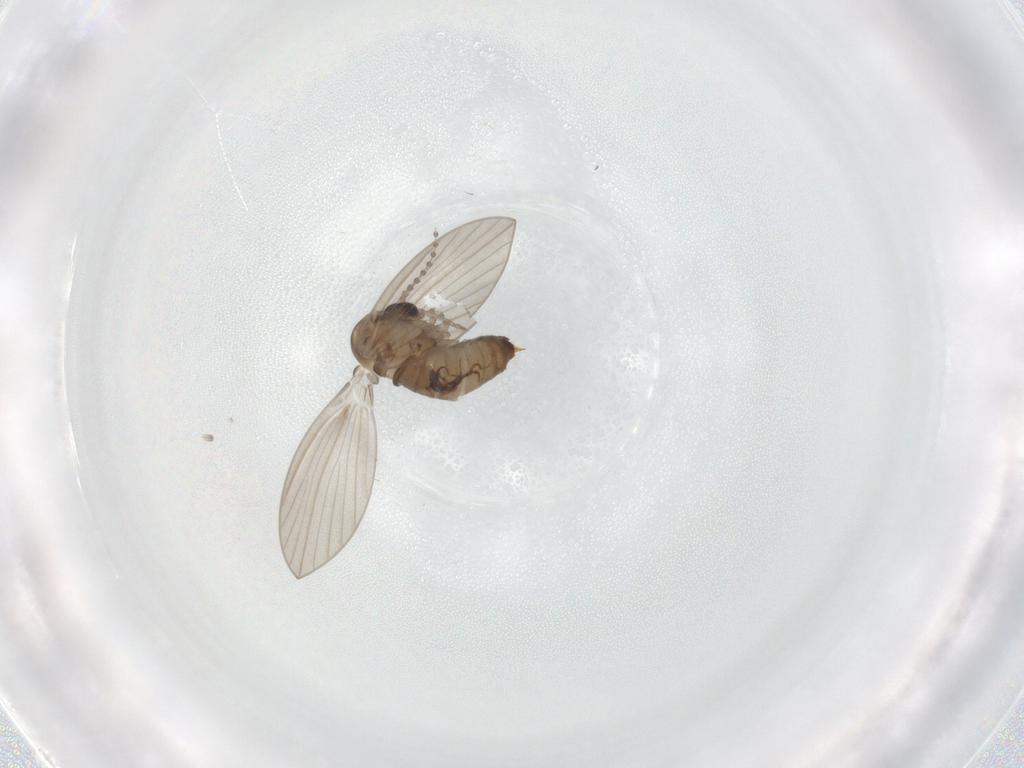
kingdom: Animalia
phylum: Arthropoda
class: Insecta
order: Diptera
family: Psychodidae
